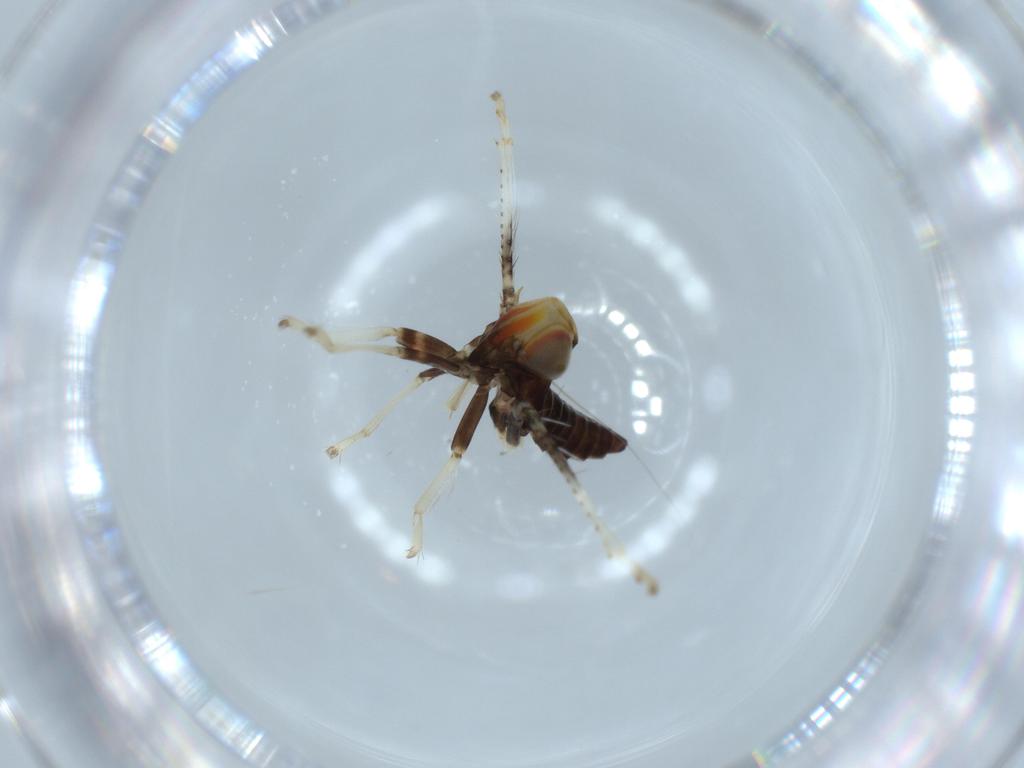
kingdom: Animalia
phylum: Arthropoda
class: Insecta
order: Hemiptera
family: Cicadellidae
